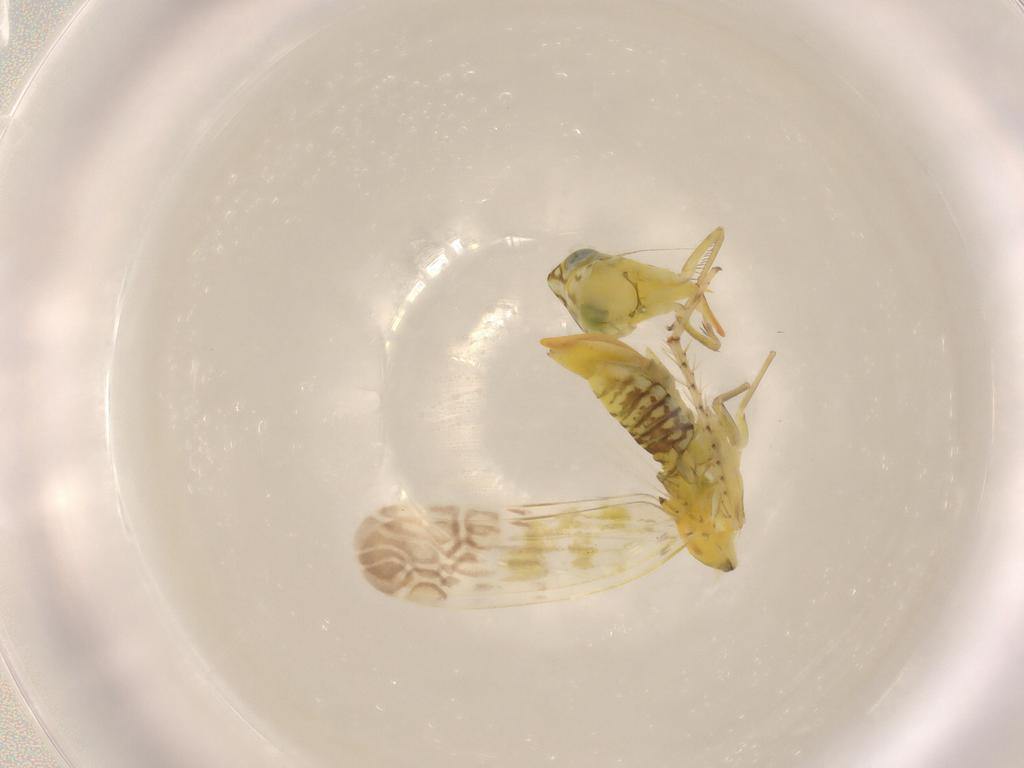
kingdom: Animalia
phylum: Arthropoda
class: Insecta
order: Hemiptera
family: Cicadellidae
